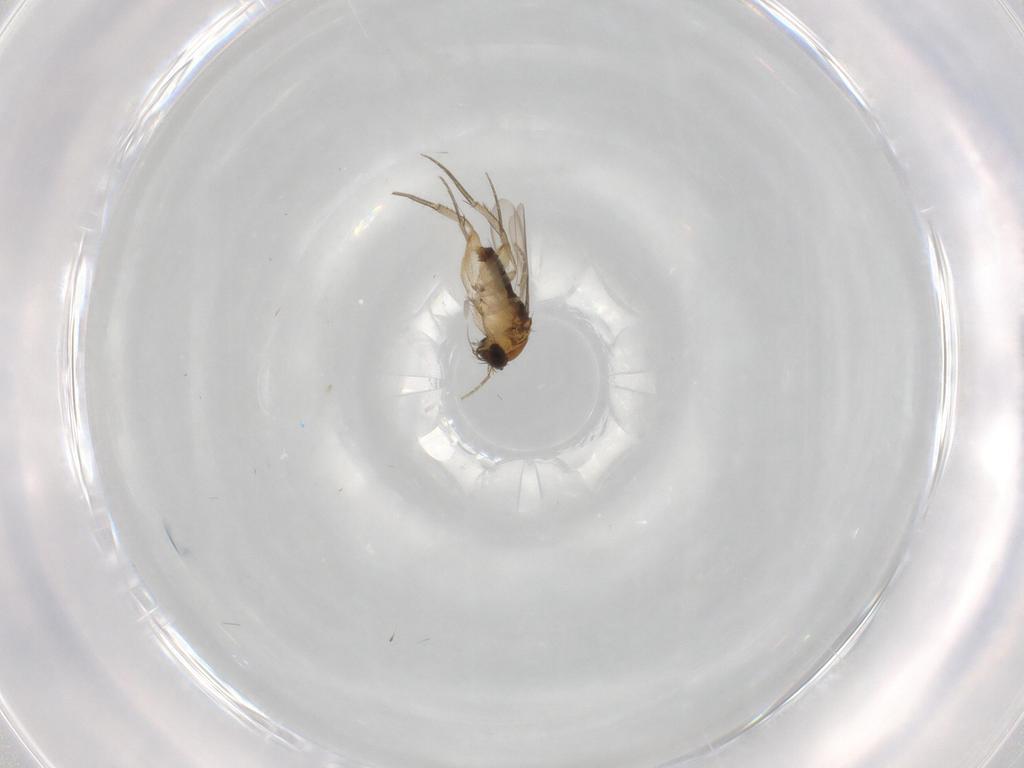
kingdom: Animalia
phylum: Arthropoda
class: Insecta
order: Diptera
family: Phoridae
